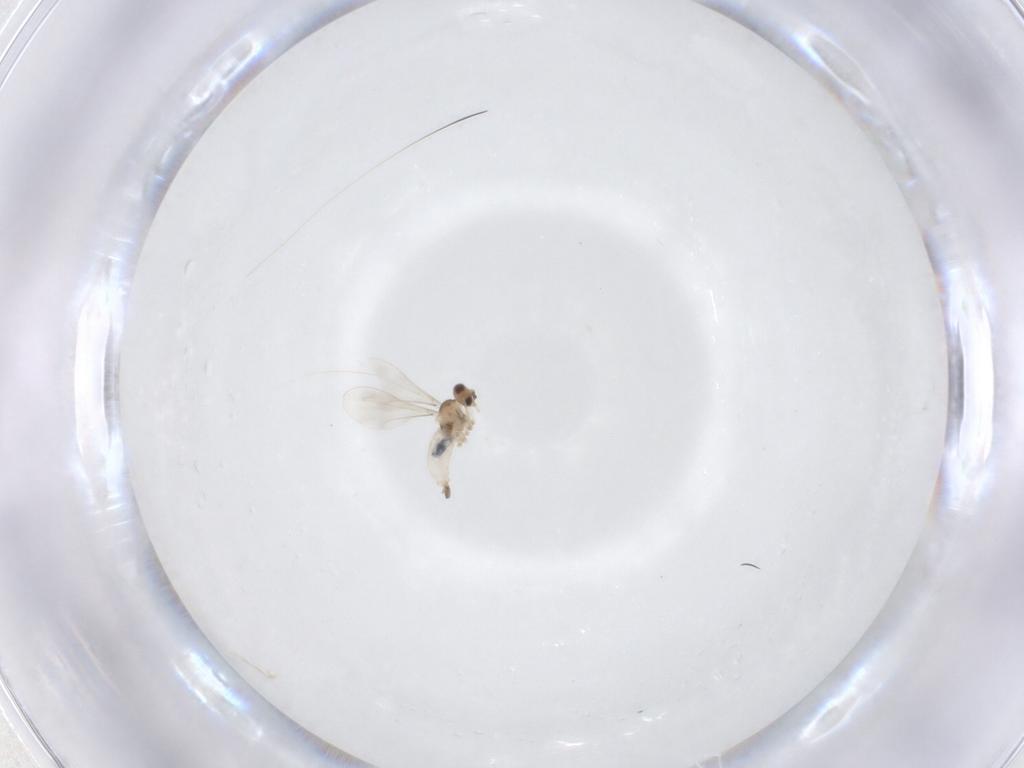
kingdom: Animalia
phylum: Arthropoda
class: Insecta
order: Diptera
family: Cecidomyiidae
